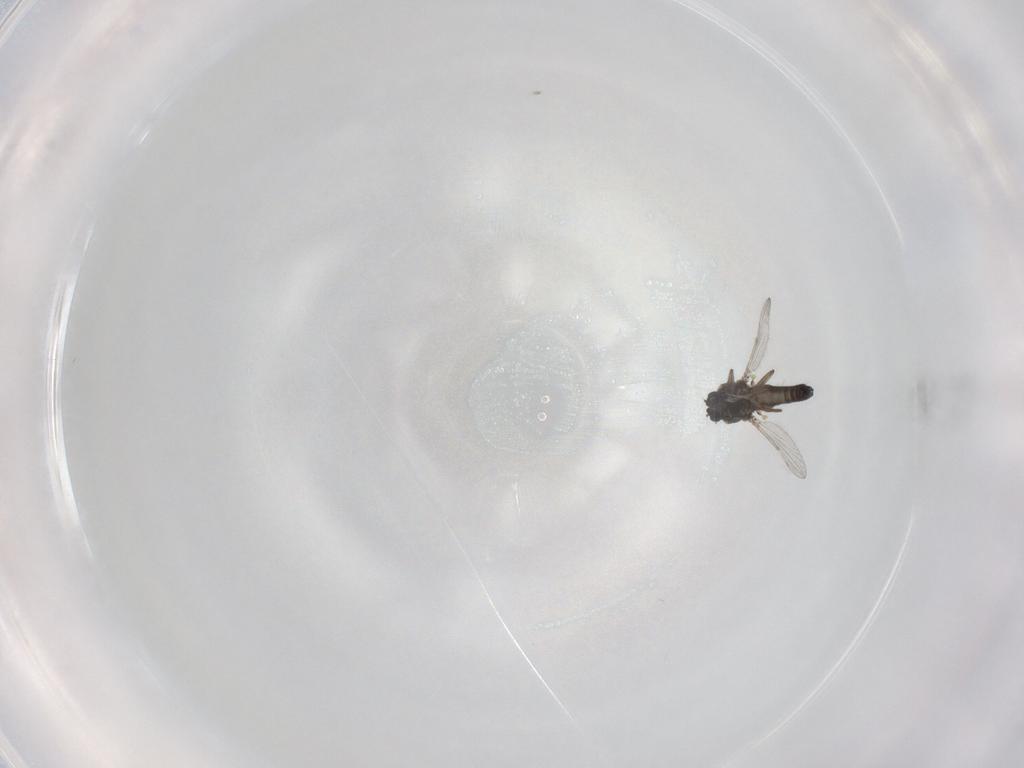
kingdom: Animalia
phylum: Arthropoda
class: Insecta
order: Diptera
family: Ceratopogonidae
